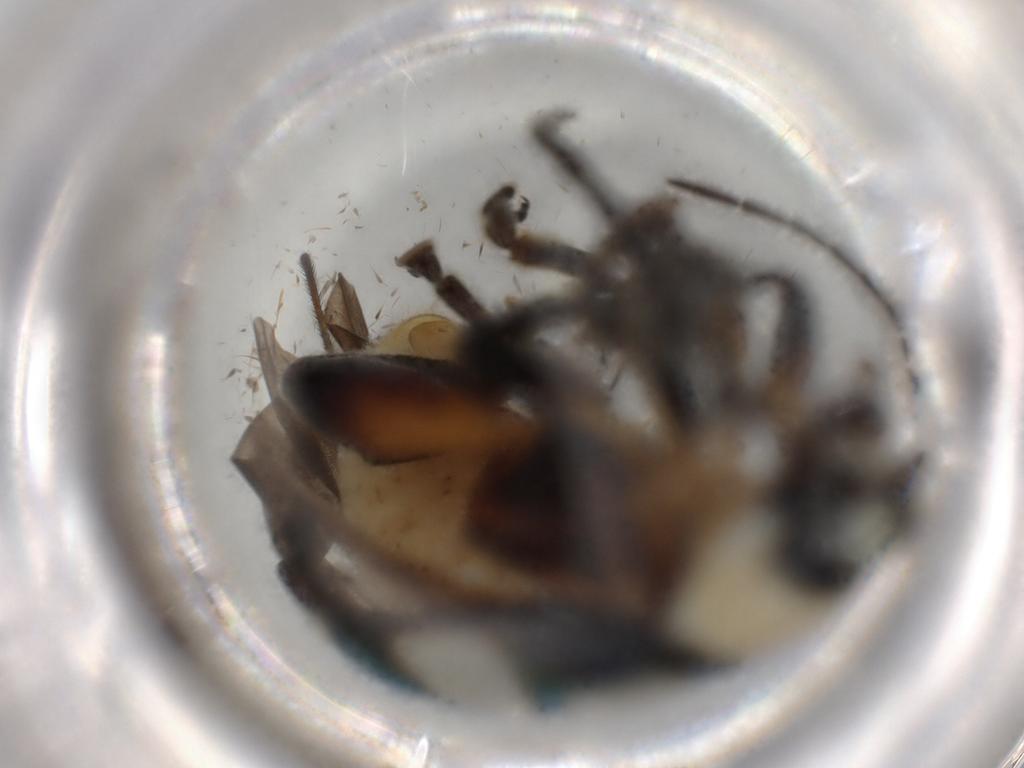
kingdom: Animalia
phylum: Arthropoda
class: Insecta
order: Coleoptera
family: Chrysomelidae
